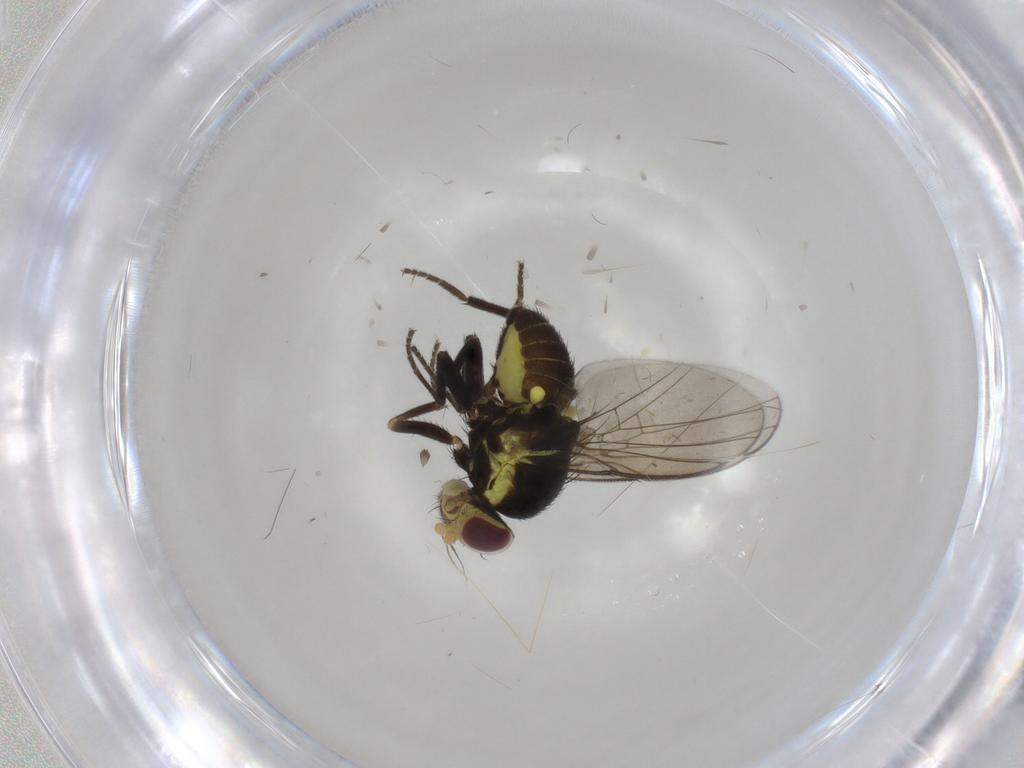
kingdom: Animalia
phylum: Arthropoda
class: Insecta
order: Diptera
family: Agromyzidae
